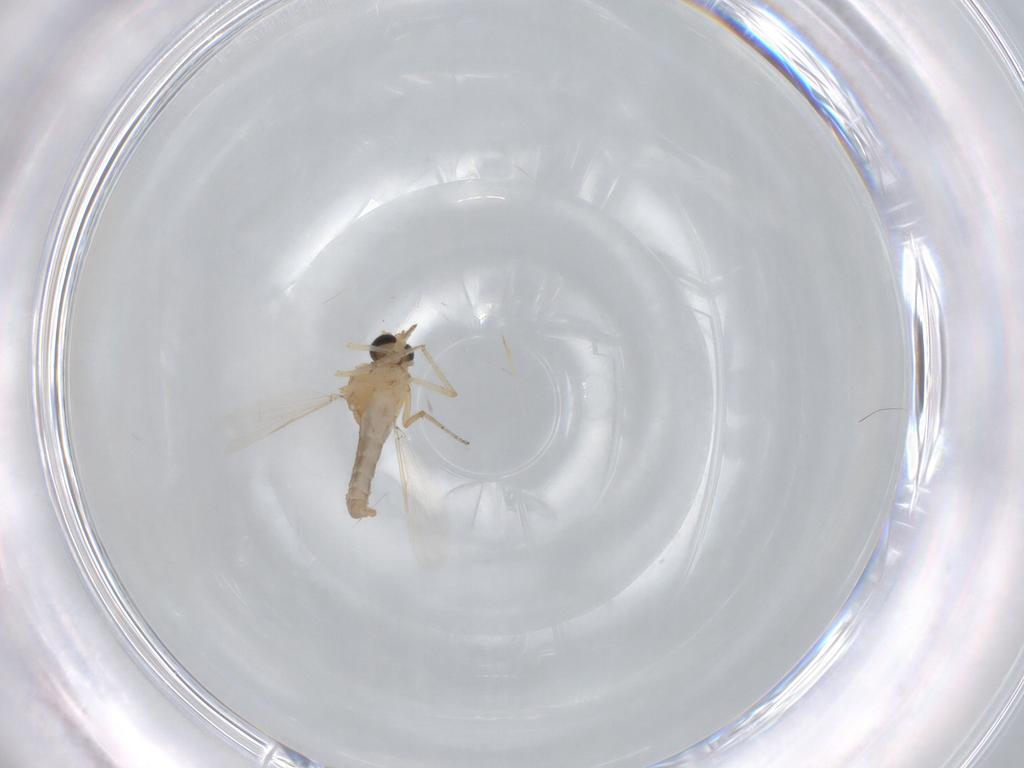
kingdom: Animalia
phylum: Arthropoda
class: Insecta
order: Diptera
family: Ceratopogonidae
